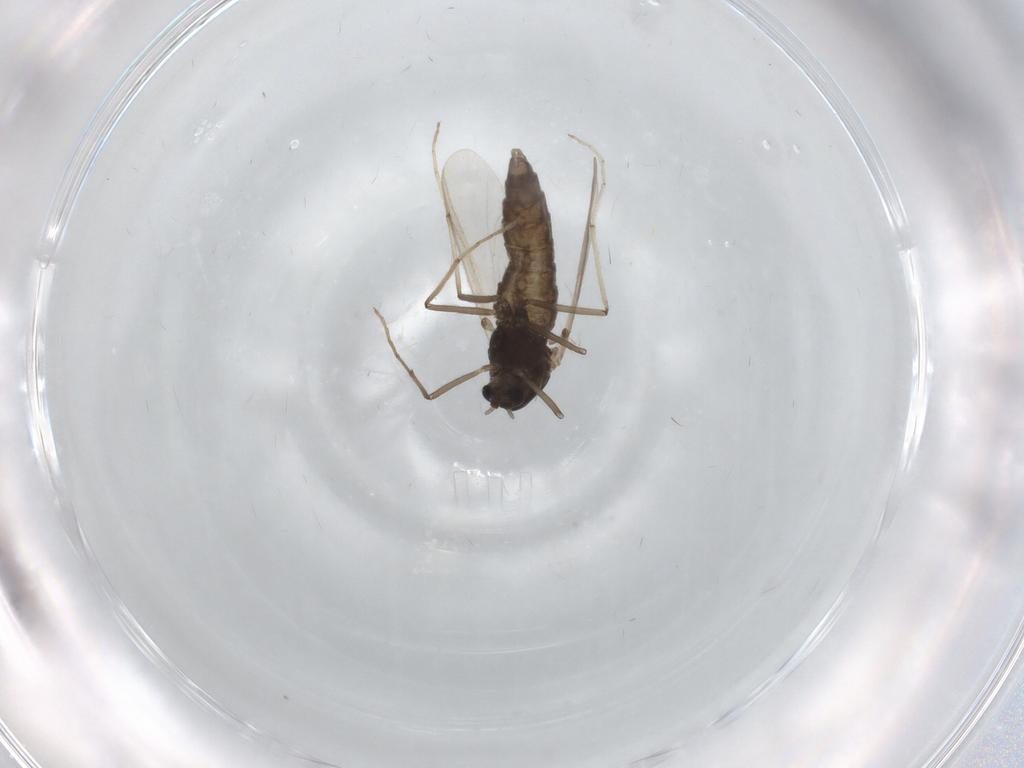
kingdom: Animalia
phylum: Arthropoda
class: Insecta
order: Diptera
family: Chironomidae
